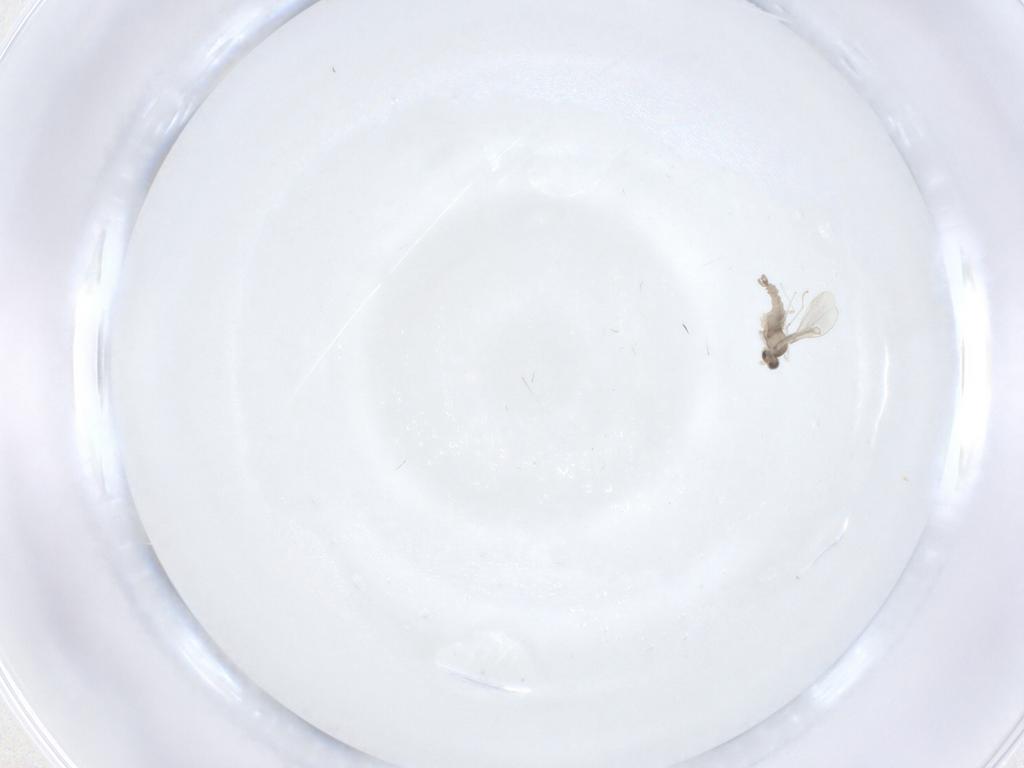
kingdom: Animalia
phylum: Arthropoda
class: Insecta
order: Diptera
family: Cecidomyiidae
